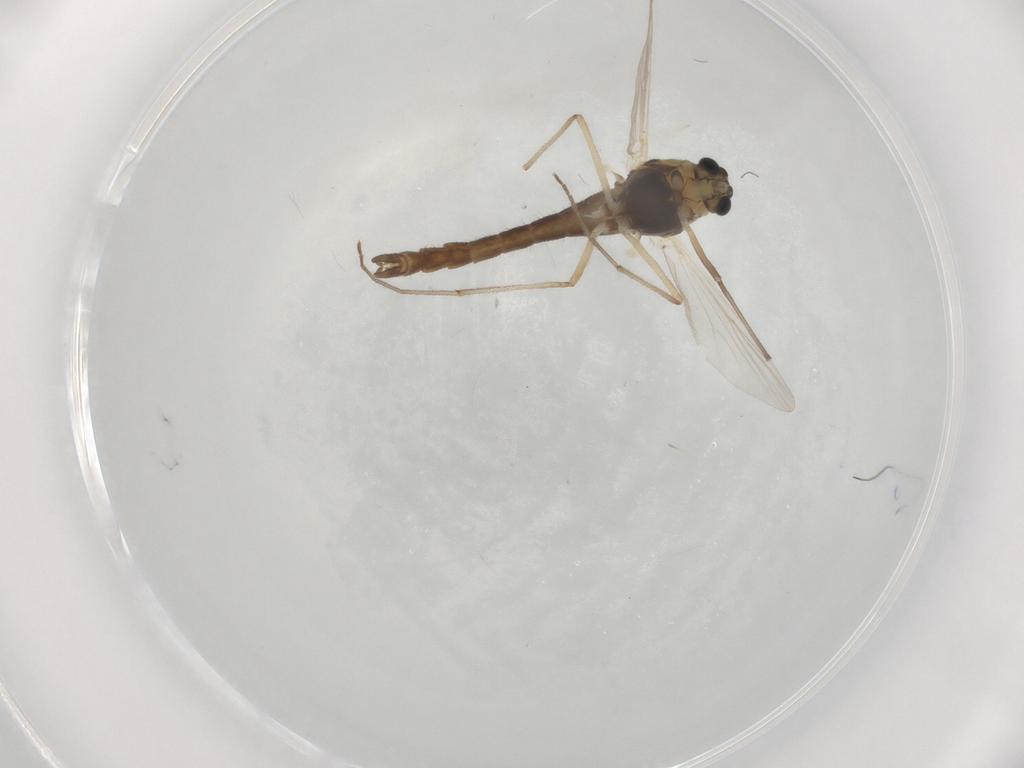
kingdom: Animalia
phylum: Arthropoda
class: Insecta
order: Diptera
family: Chironomidae
